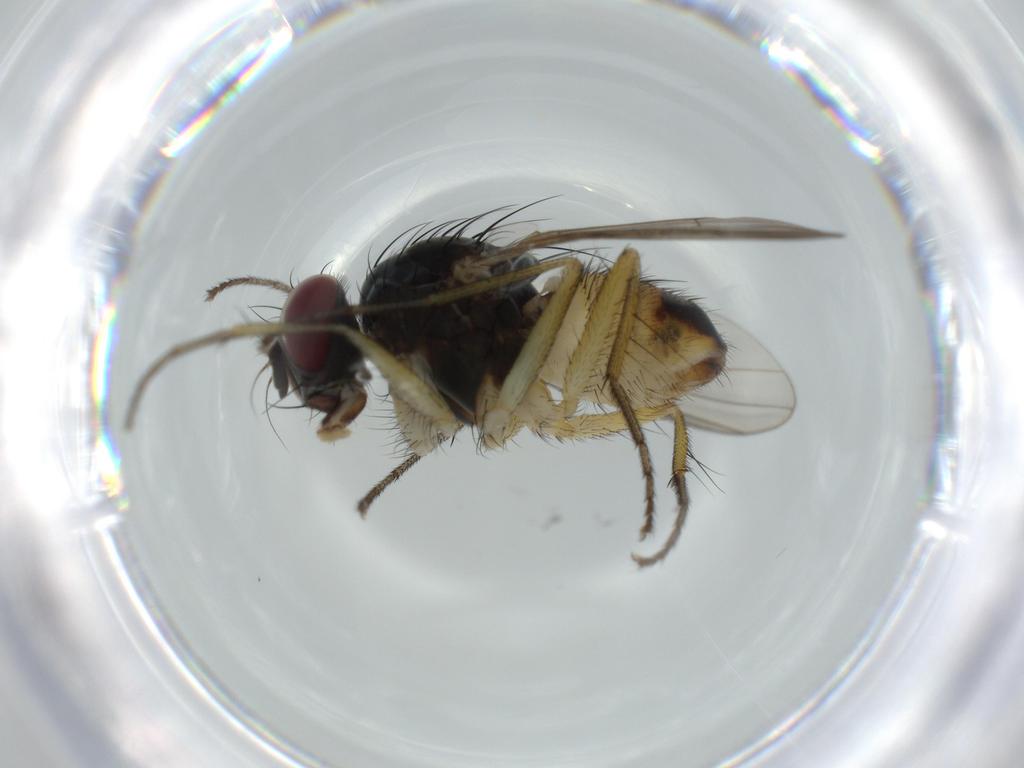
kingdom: Animalia
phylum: Arthropoda
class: Insecta
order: Diptera
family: Muscidae
